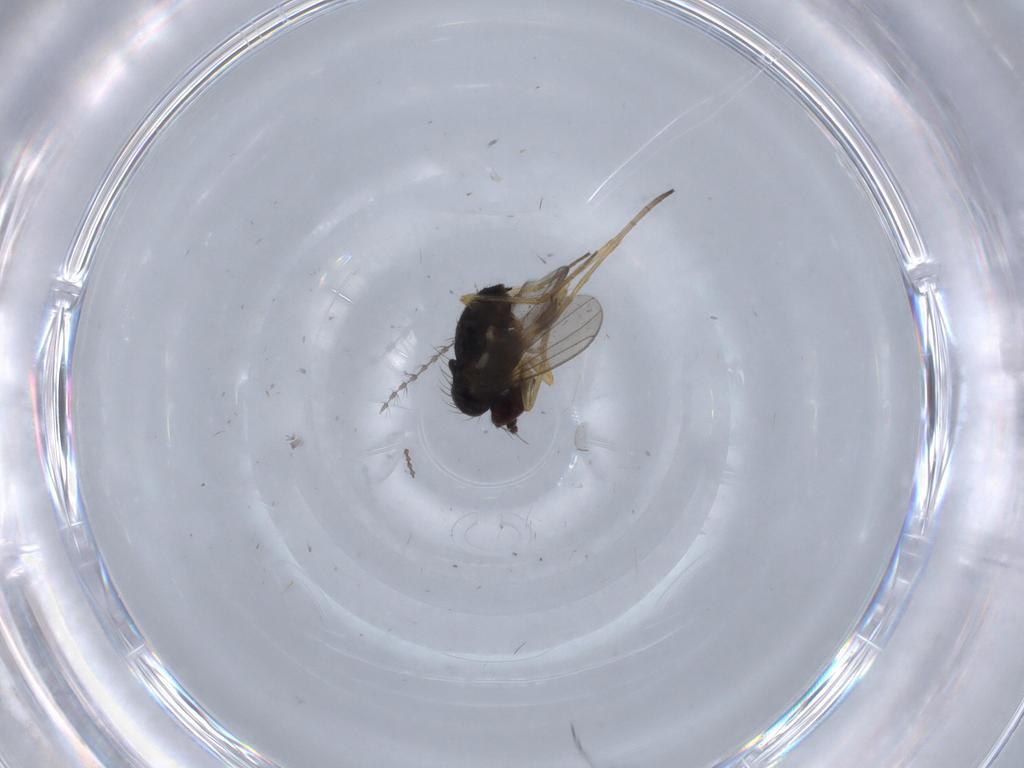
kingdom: Animalia
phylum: Arthropoda
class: Insecta
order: Diptera
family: Dolichopodidae
